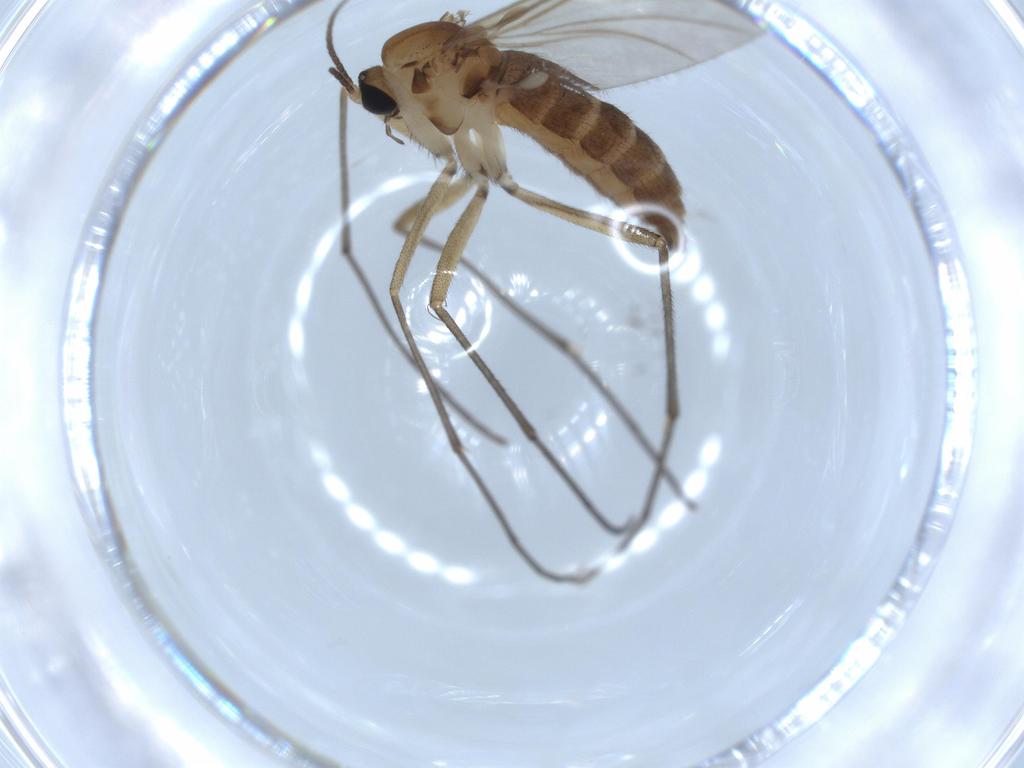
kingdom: Animalia
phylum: Arthropoda
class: Insecta
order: Diptera
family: Sciaridae
